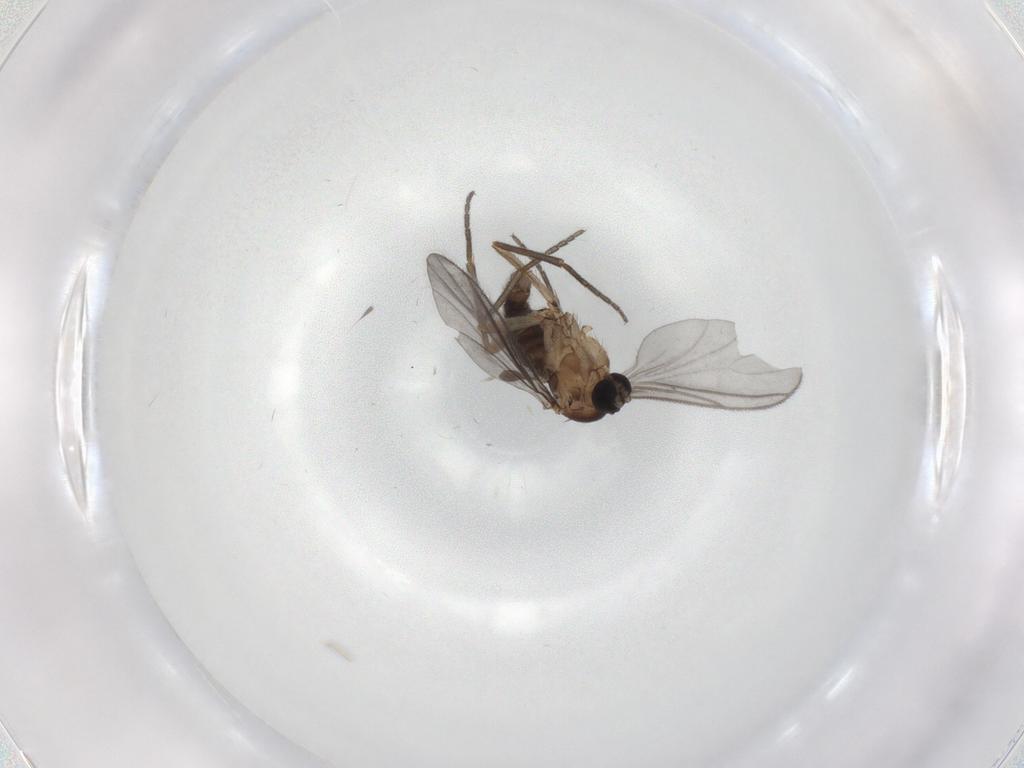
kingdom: Animalia
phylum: Arthropoda
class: Insecta
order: Diptera
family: Sciaridae
